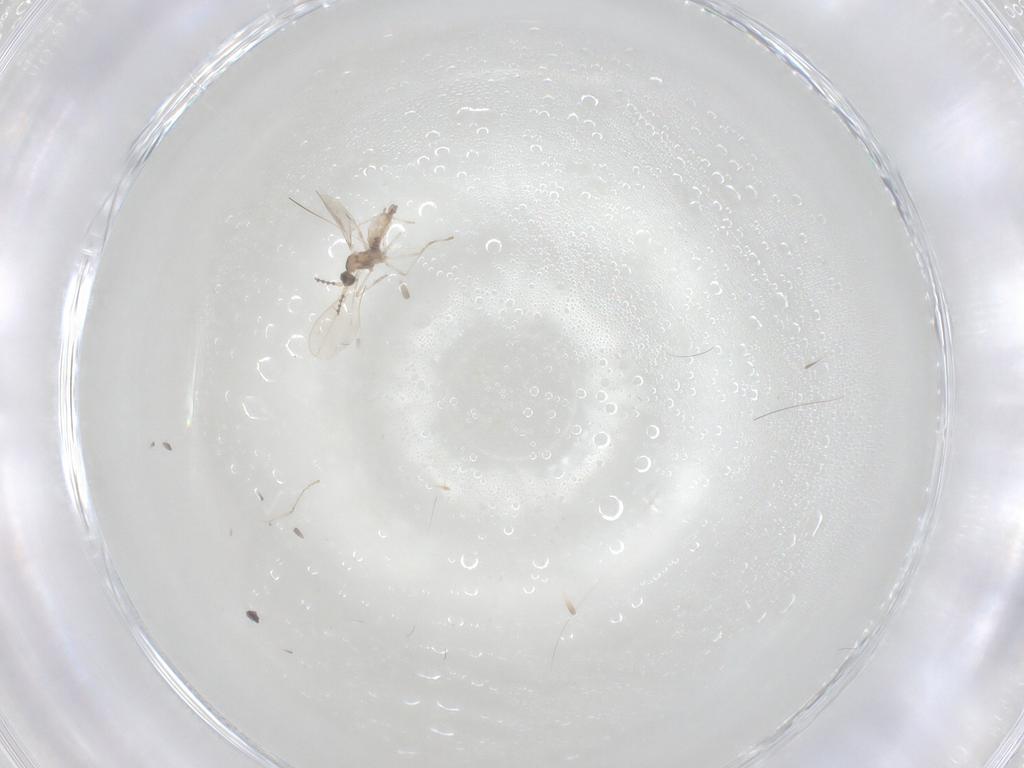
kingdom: Animalia
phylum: Arthropoda
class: Insecta
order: Diptera
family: Cecidomyiidae
